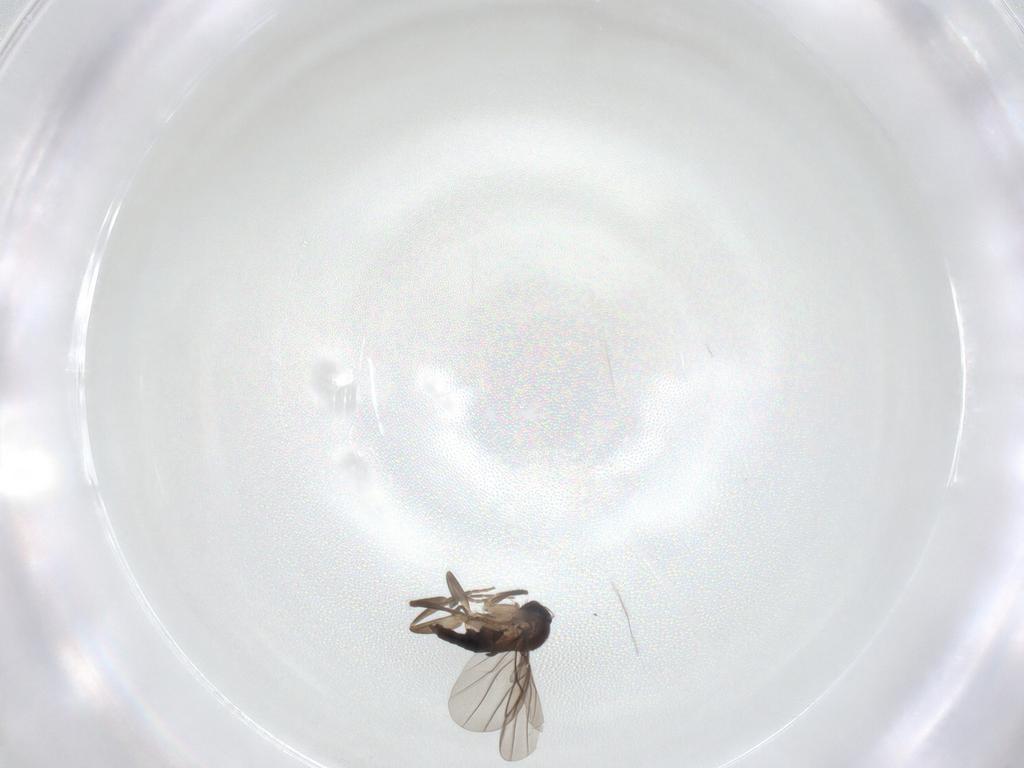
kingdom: Animalia
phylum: Arthropoda
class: Insecta
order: Diptera
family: Phoridae
